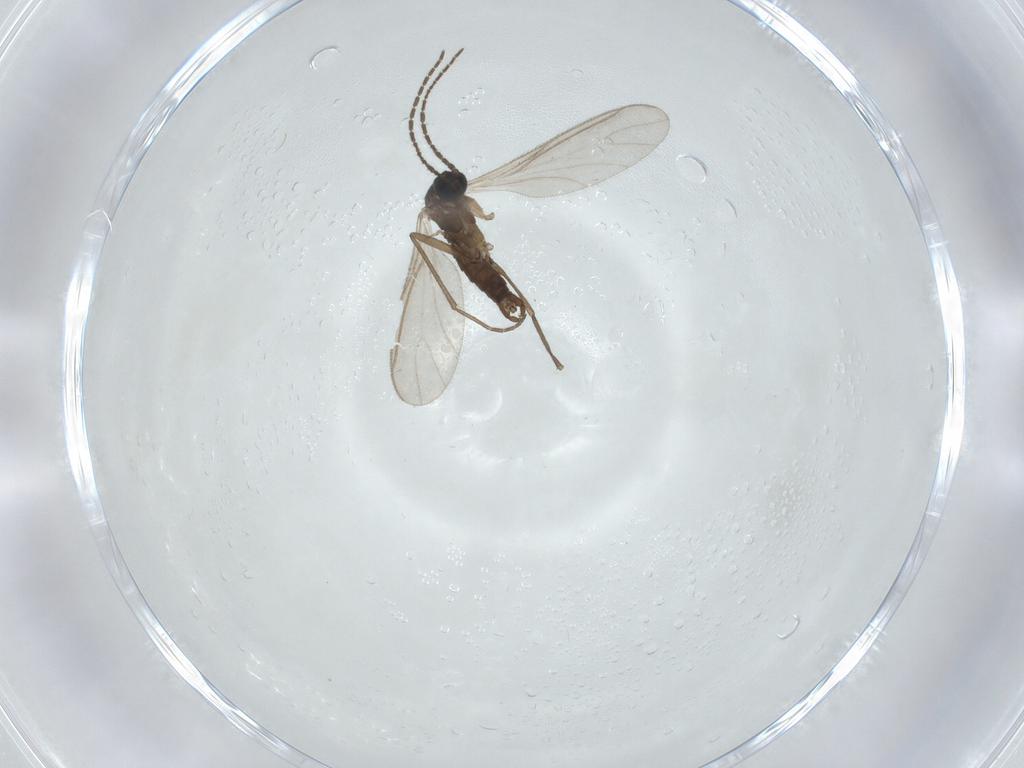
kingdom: Animalia
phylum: Arthropoda
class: Insecta
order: Diptera
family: Sciaridae
